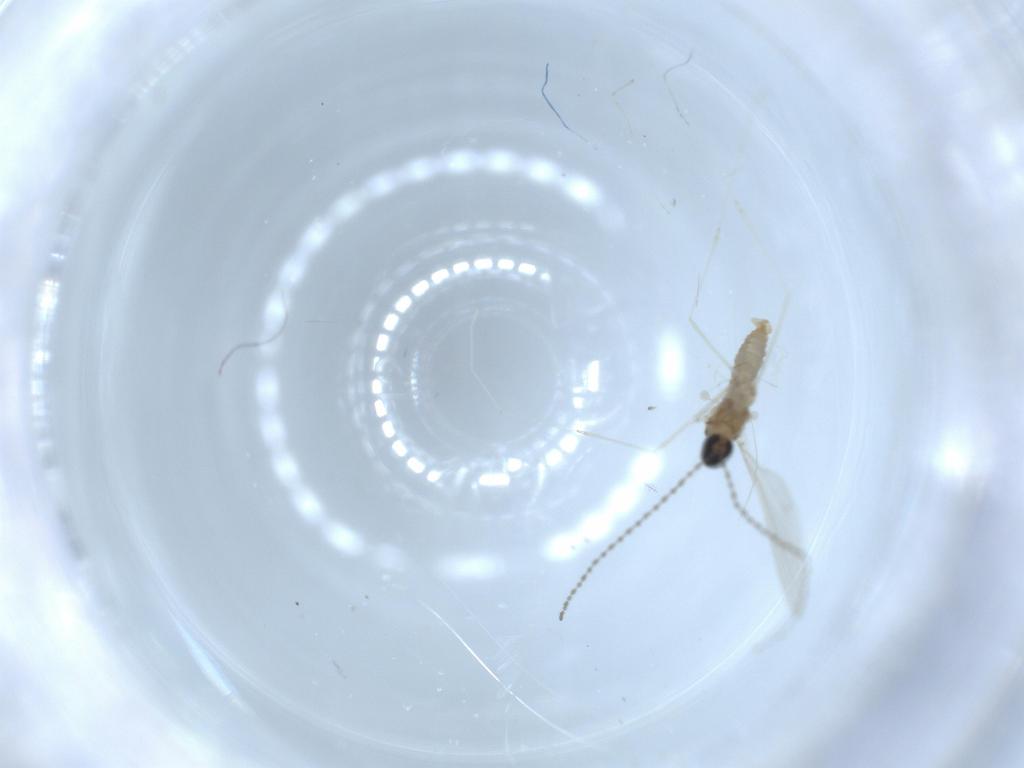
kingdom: Animalia
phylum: Arthropoda
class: Insecta
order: Diptera
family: Cecidomyiidae
